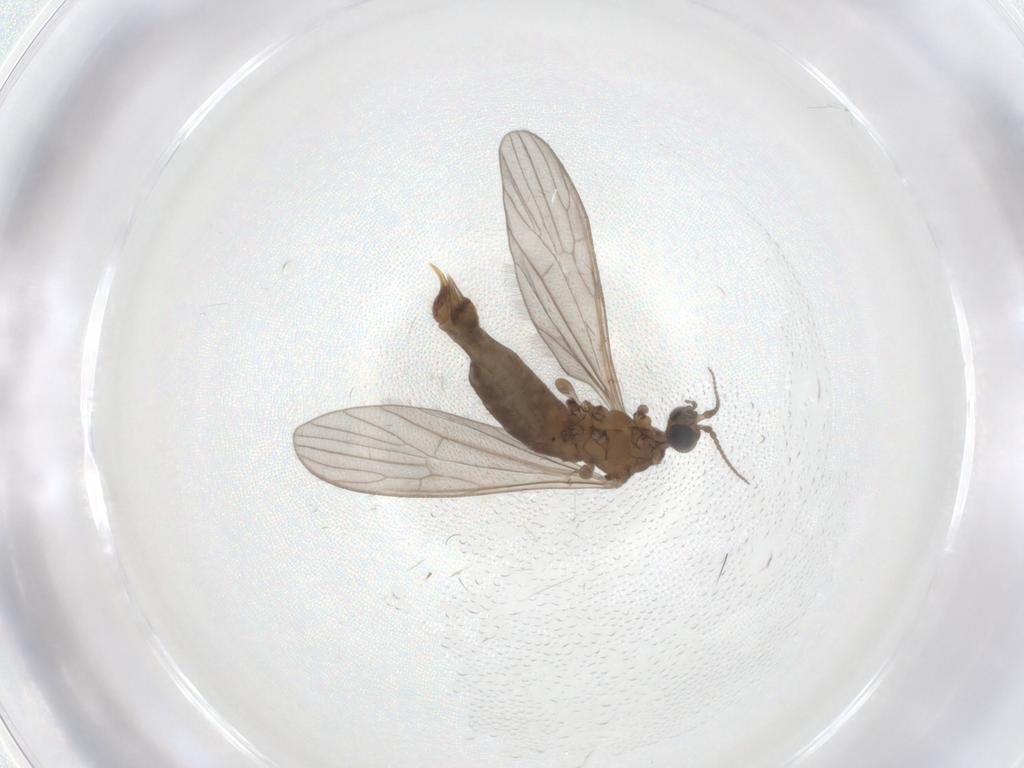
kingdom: Animalia
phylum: Arthropoda
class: Insecta
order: Diptera
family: Limoniidae
